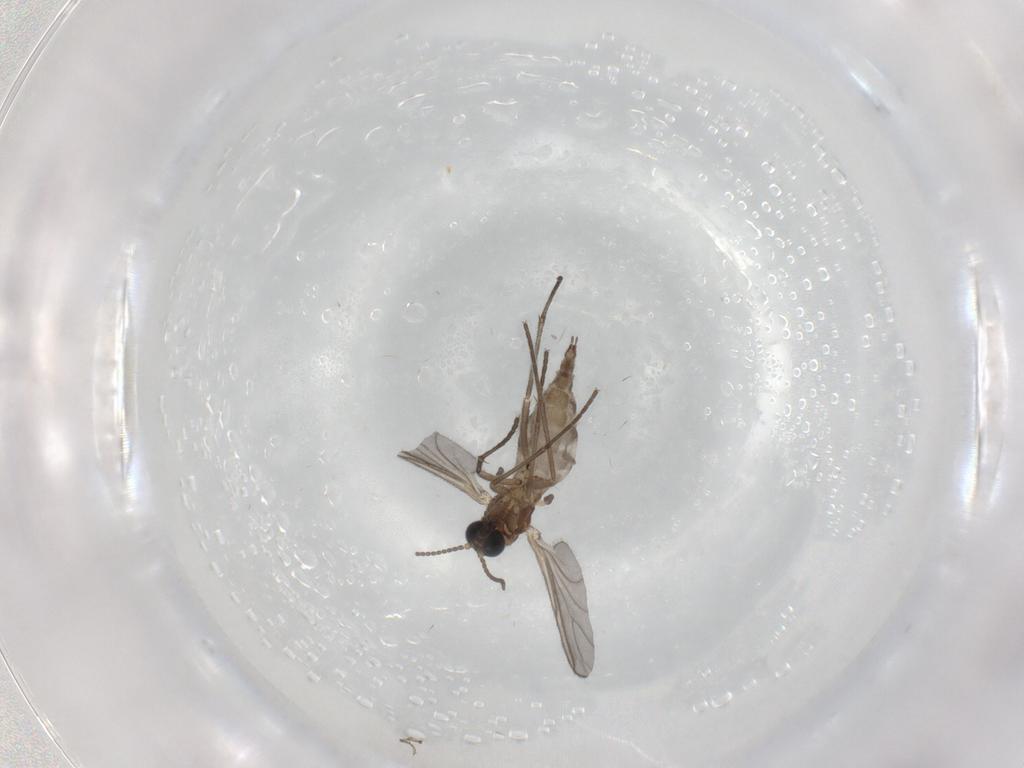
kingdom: Animalia
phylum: Arthropoda
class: Insecta
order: Diptera
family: Sciaridae
